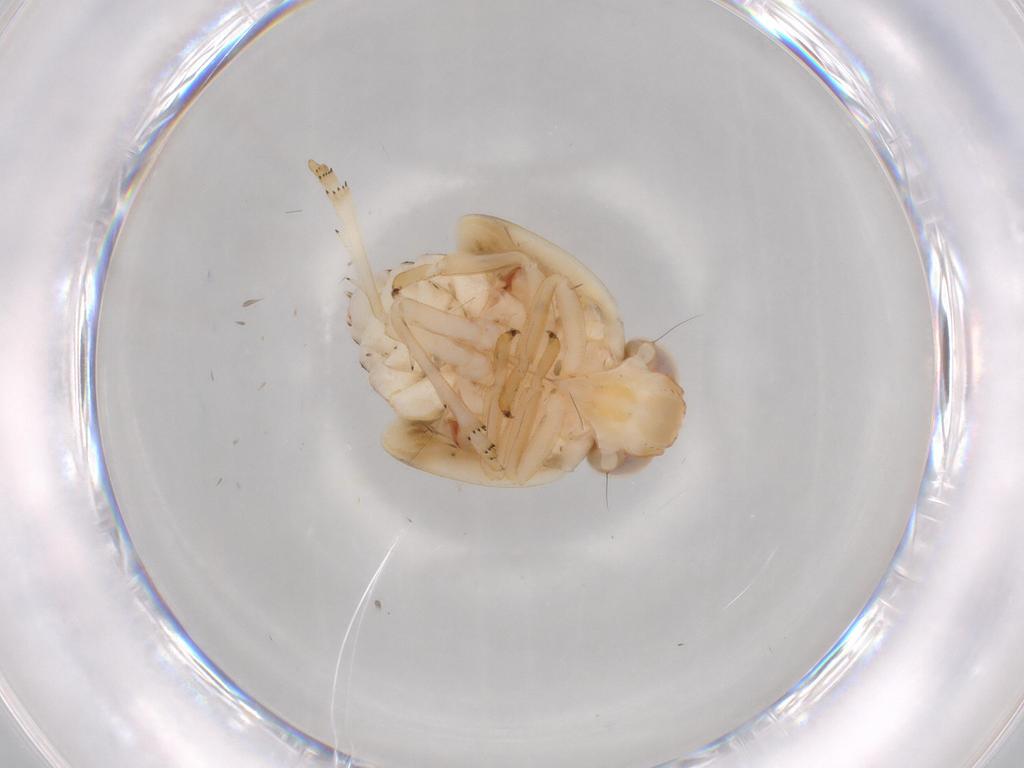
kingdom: Animalia
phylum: Arthropoda
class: Insecta
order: Hemiptera
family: Nogodinidae
